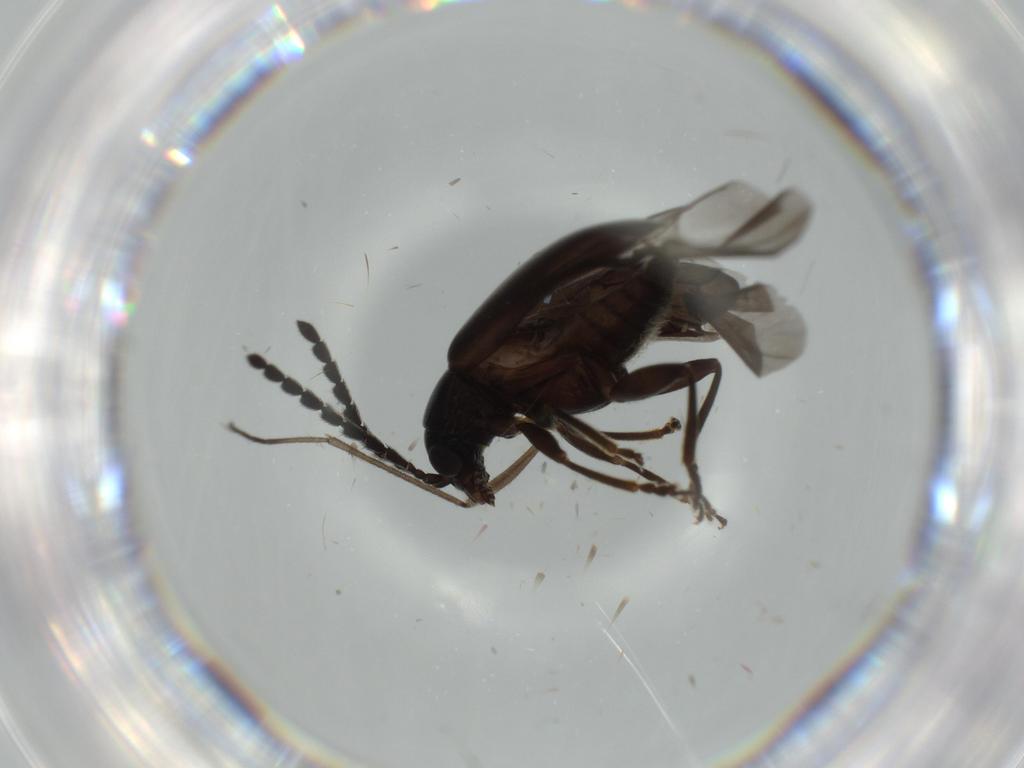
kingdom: Animalia
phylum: Arthropoda
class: Insecta
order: Coleoptera
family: Chrysomelidae
